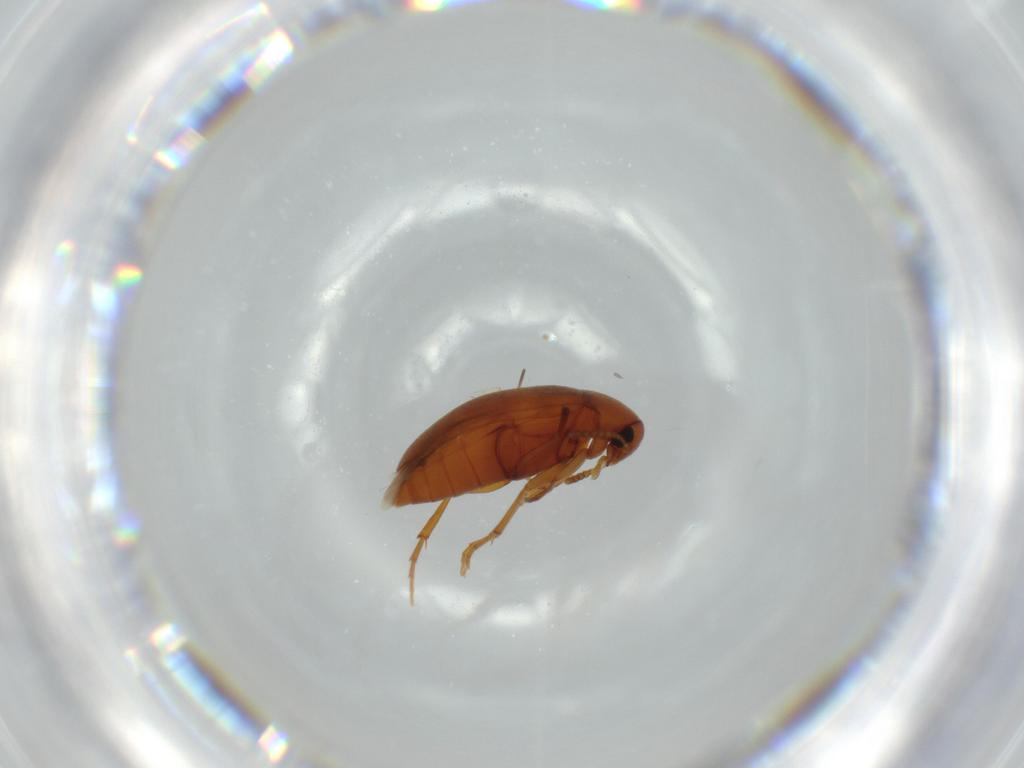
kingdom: Animalia
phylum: Arthropoda
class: Insecta
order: Coleoptera
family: Scraptiidae
